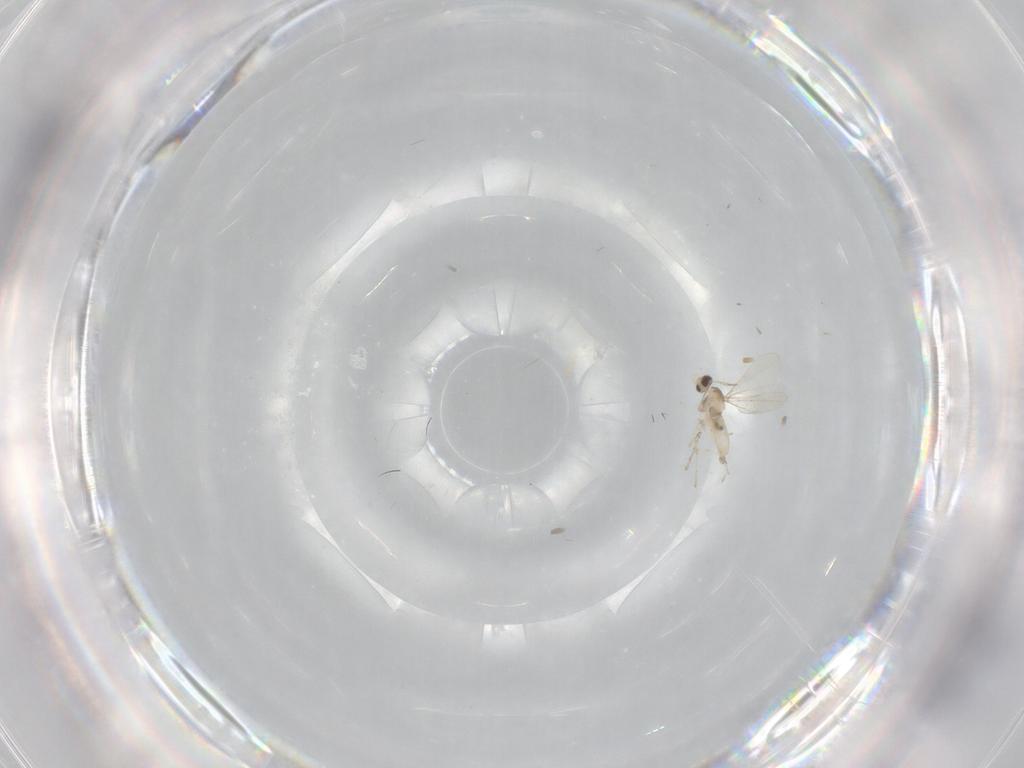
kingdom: Animalia
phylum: Arthropoda
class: Insecta
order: Diptera
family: Cecidomyiidae
